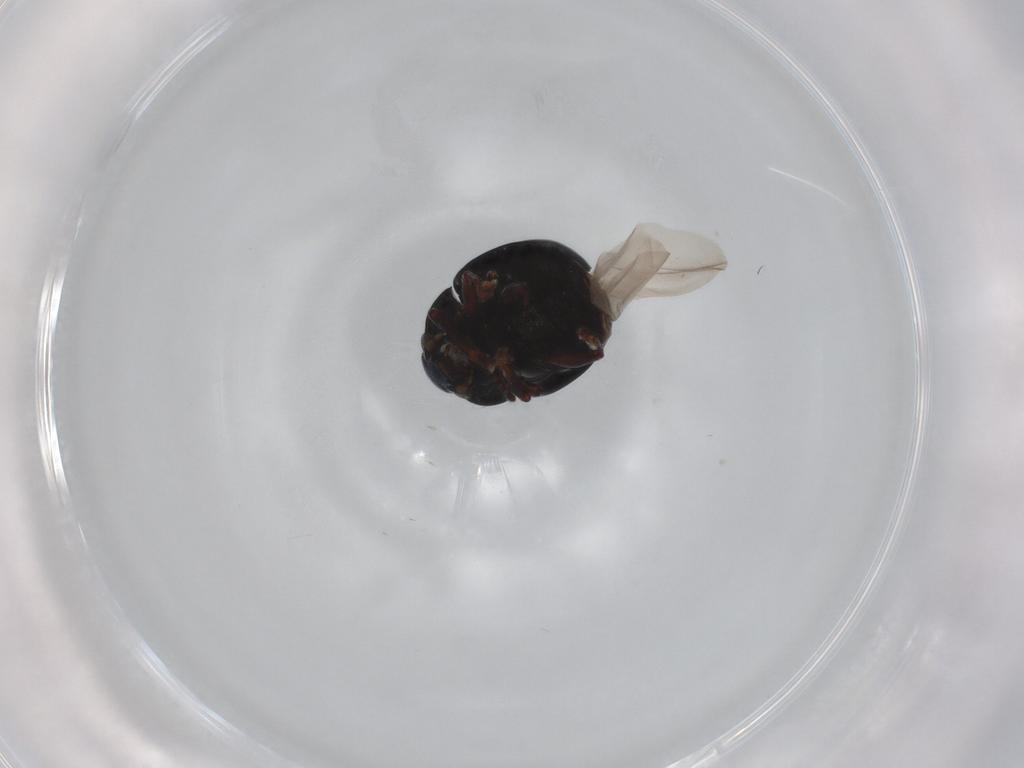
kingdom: Animalia
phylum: Arthropoda
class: Insecta
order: Coleoptera
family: Chrysomelidae
